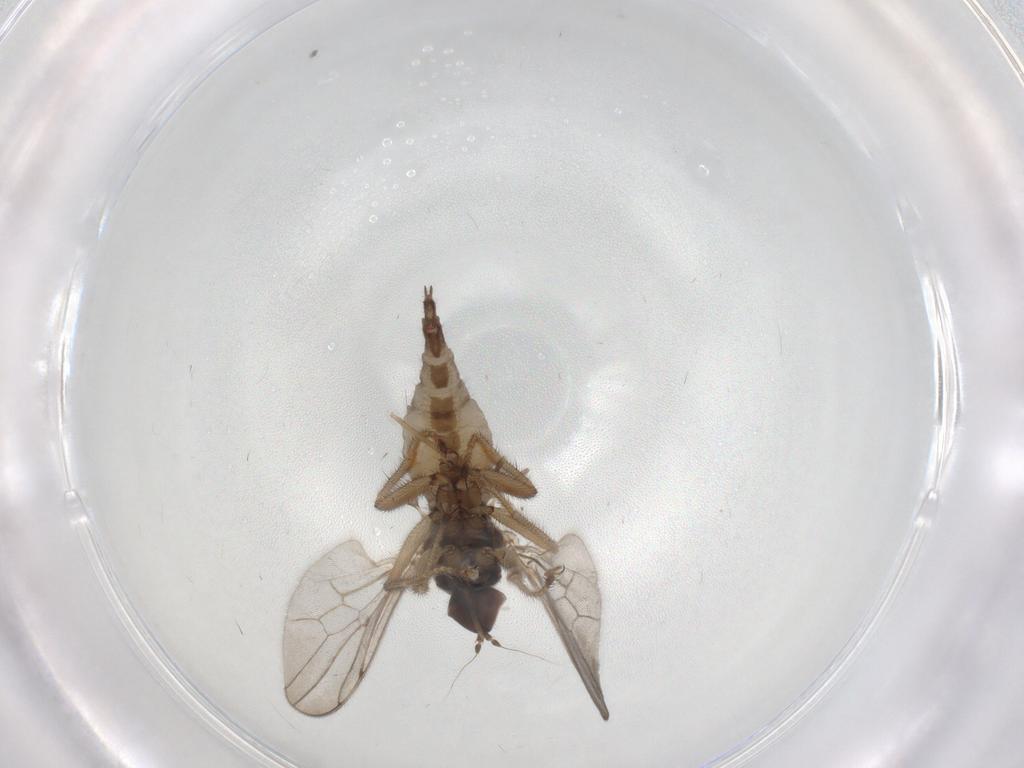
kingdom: Animalia
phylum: Arthropoda
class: Insecta
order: Diptera
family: Hybotidae
